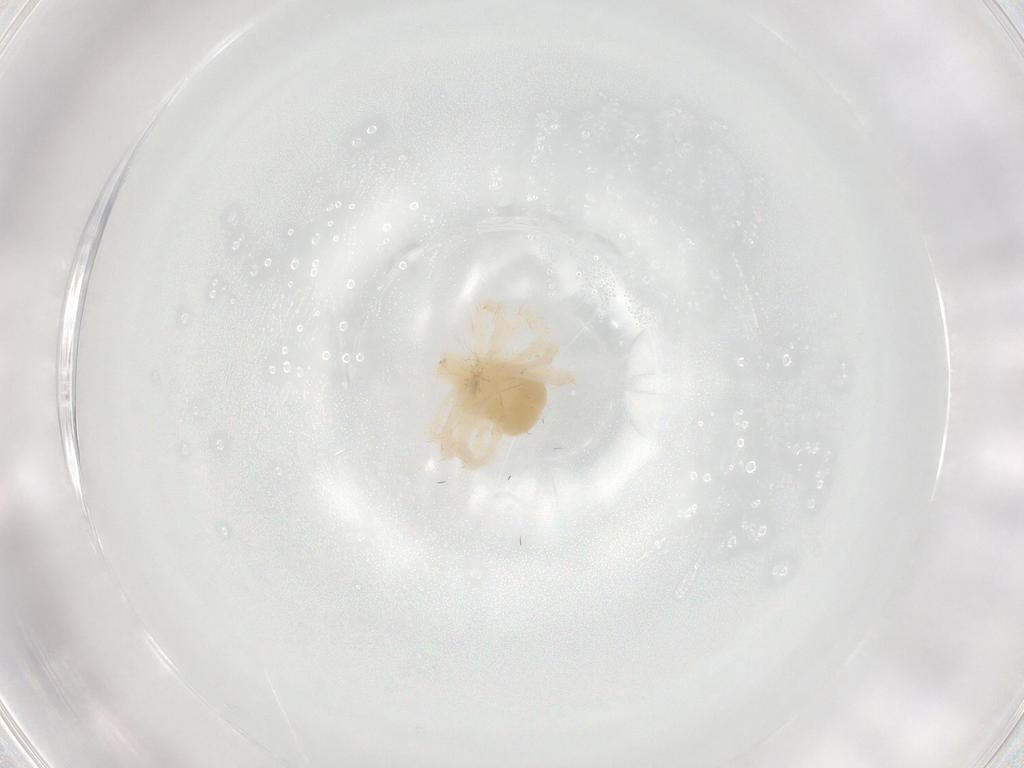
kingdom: Animalia
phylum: Arthropoda
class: Arachnida
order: Trombidiformes
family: Anystidae
